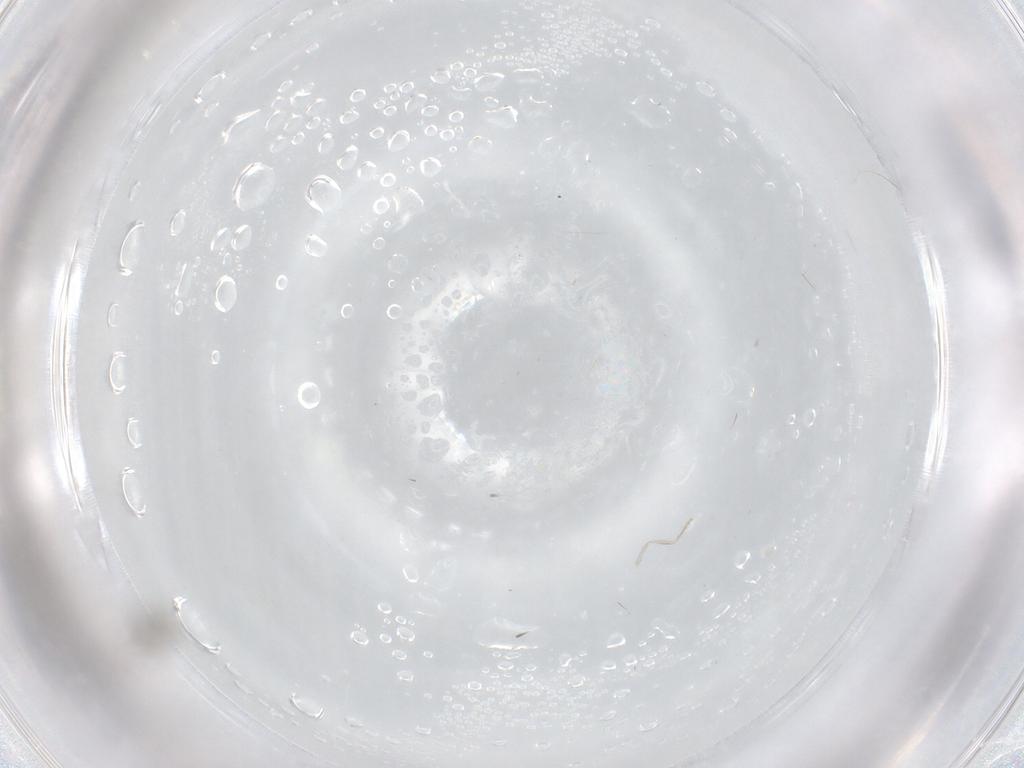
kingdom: Animalia
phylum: Arthropoda
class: Insecta
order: Diptera
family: Cecidomyiidae
